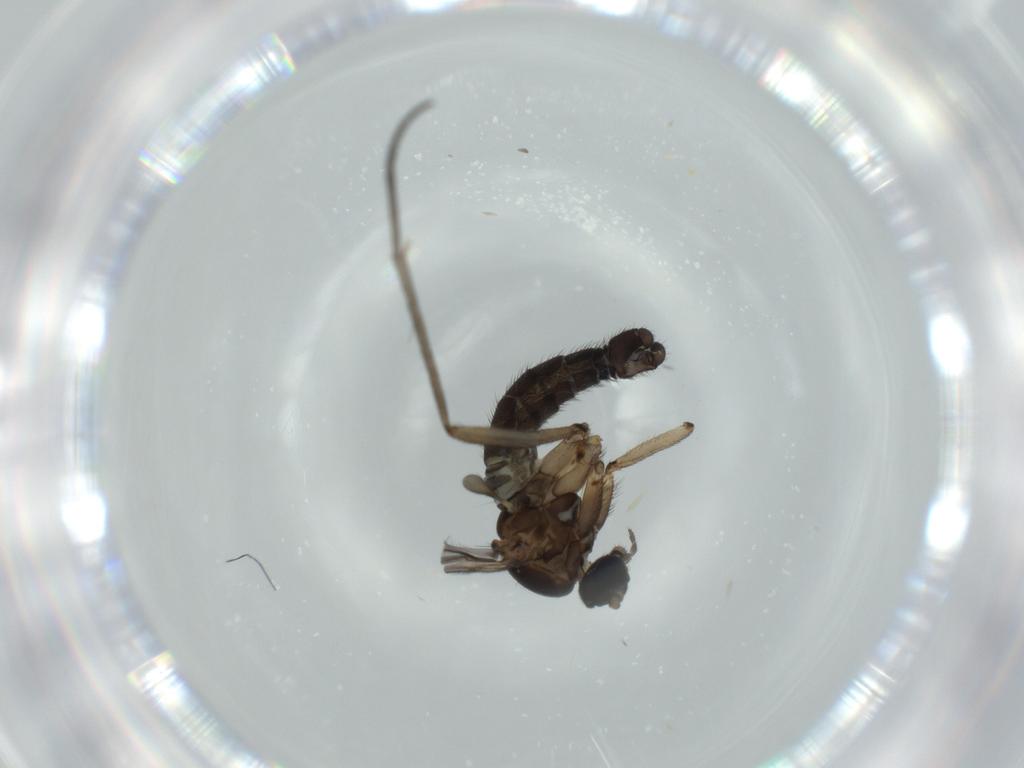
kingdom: Animalia
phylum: Arthropoda
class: Insecta
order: Diptera
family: Sciaridae
